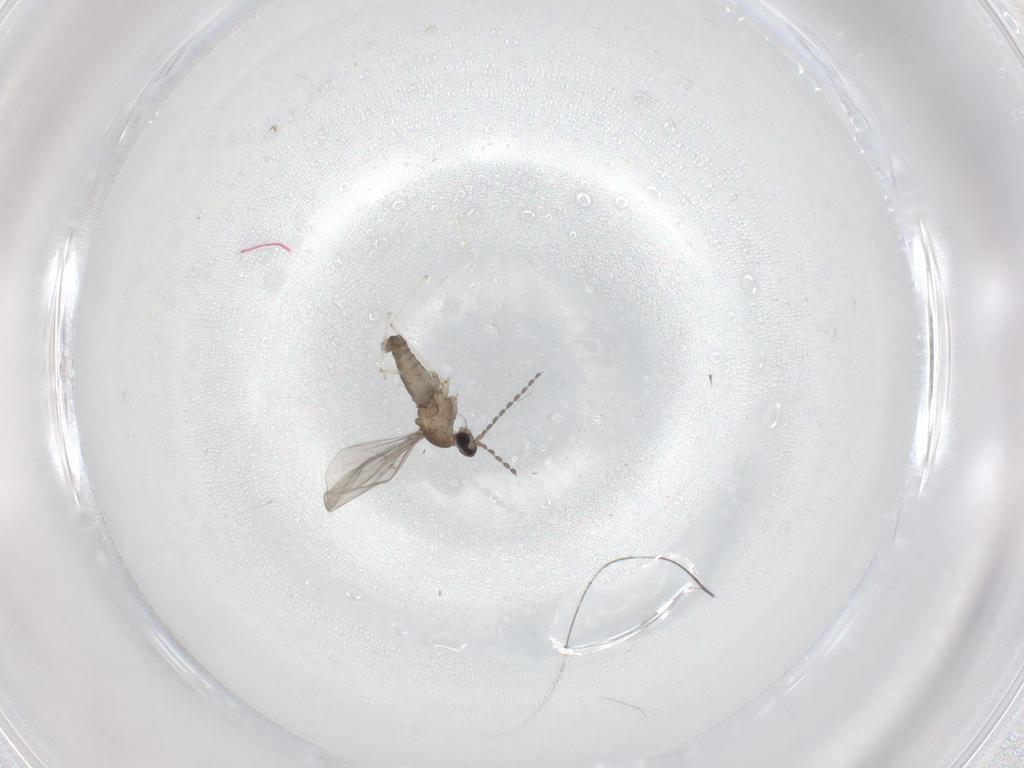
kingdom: Animalia
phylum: Arthropoda
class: Insecta
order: Diptera
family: Cecidomyiidae
